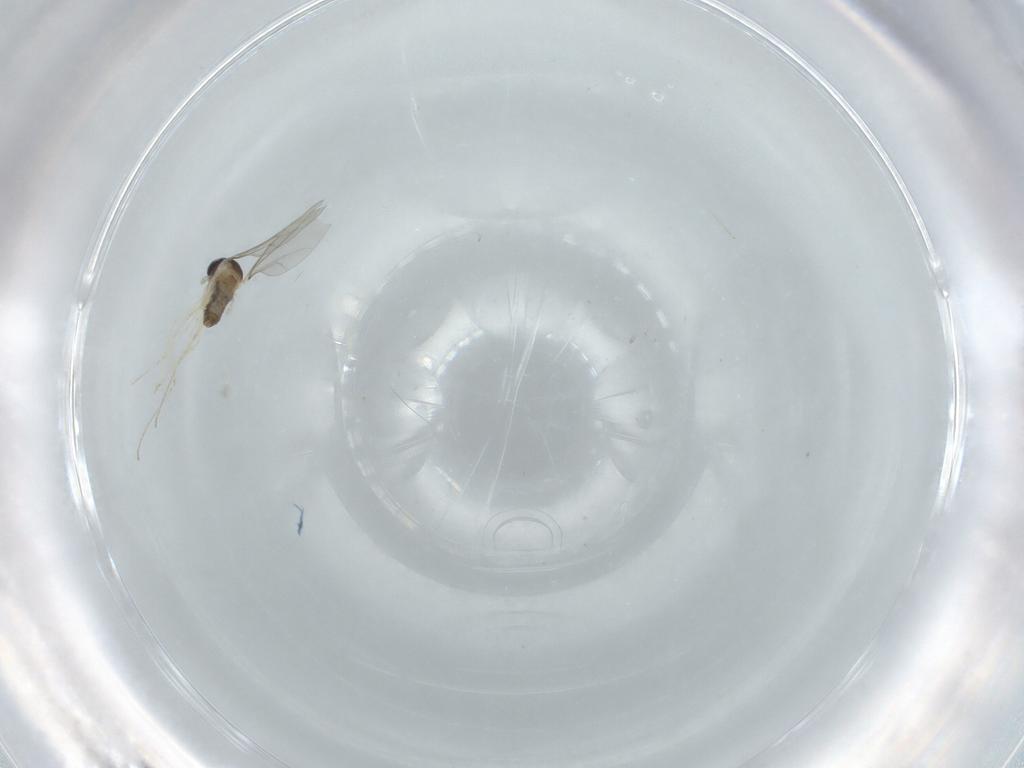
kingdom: Animalia
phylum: Arthropoda
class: Insecta
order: Diptera
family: Cecidomyiidae
